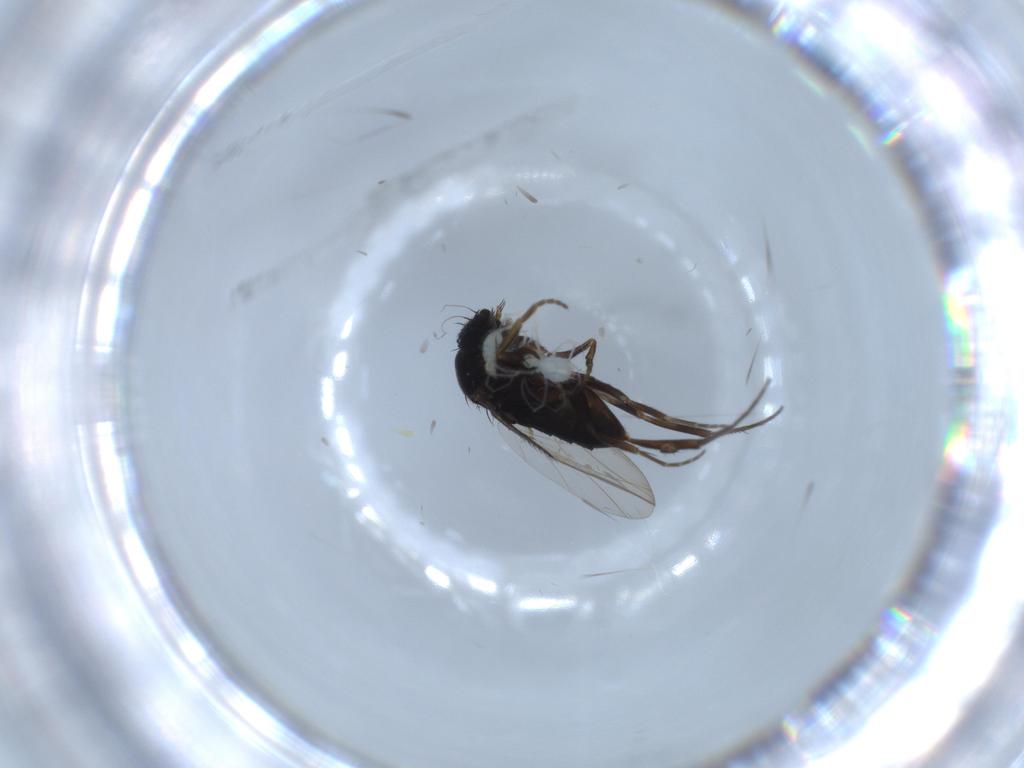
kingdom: Animalia
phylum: Arthropoda
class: Insecta
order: Diptera
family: Phoridae
